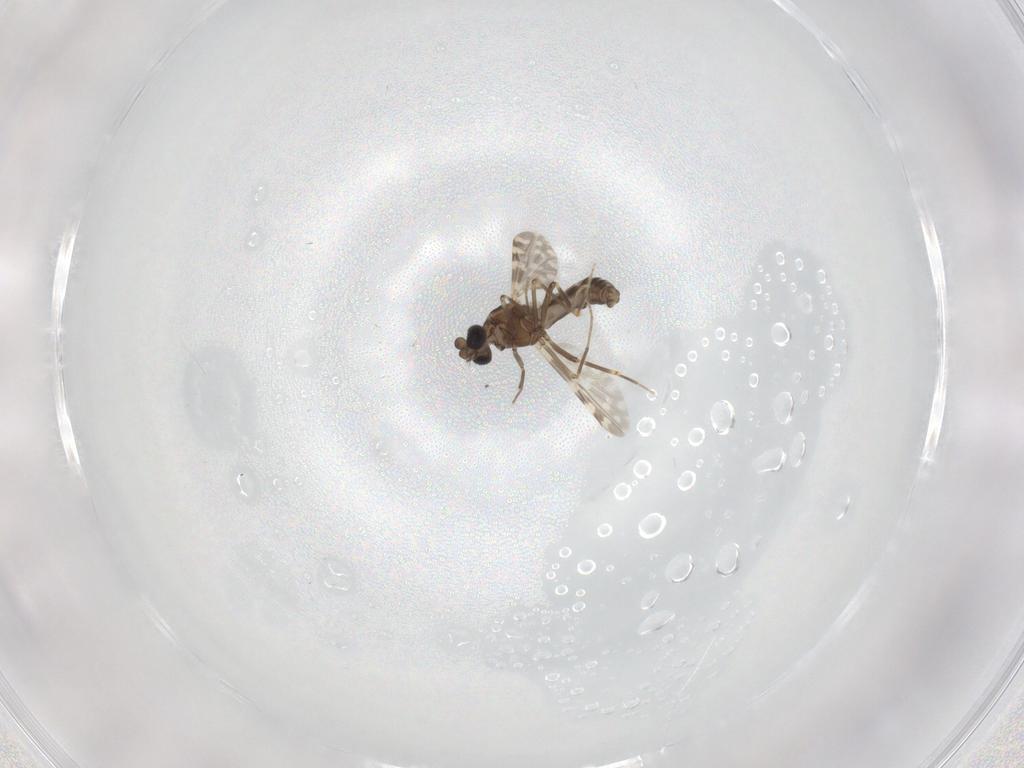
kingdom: Animalia
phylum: Arthropoda
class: Insecta
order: Diptera
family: Ceratopogonidae
